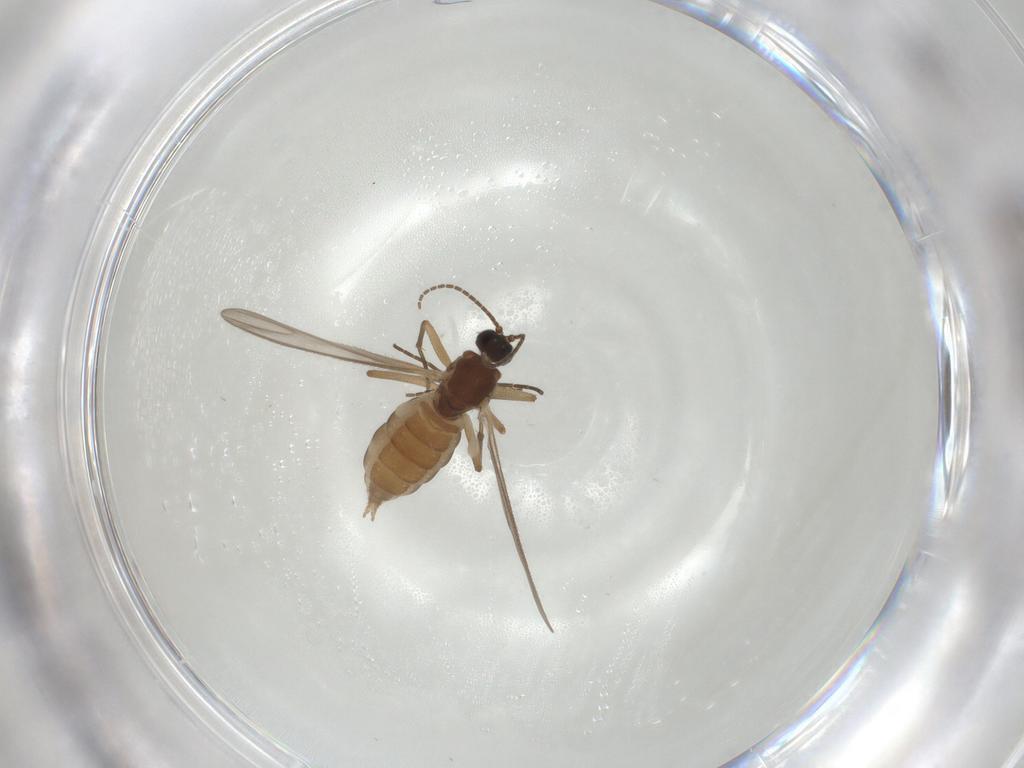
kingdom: Animalia
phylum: Arthropoda
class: Insecta
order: Diptera
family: Sciaridae
